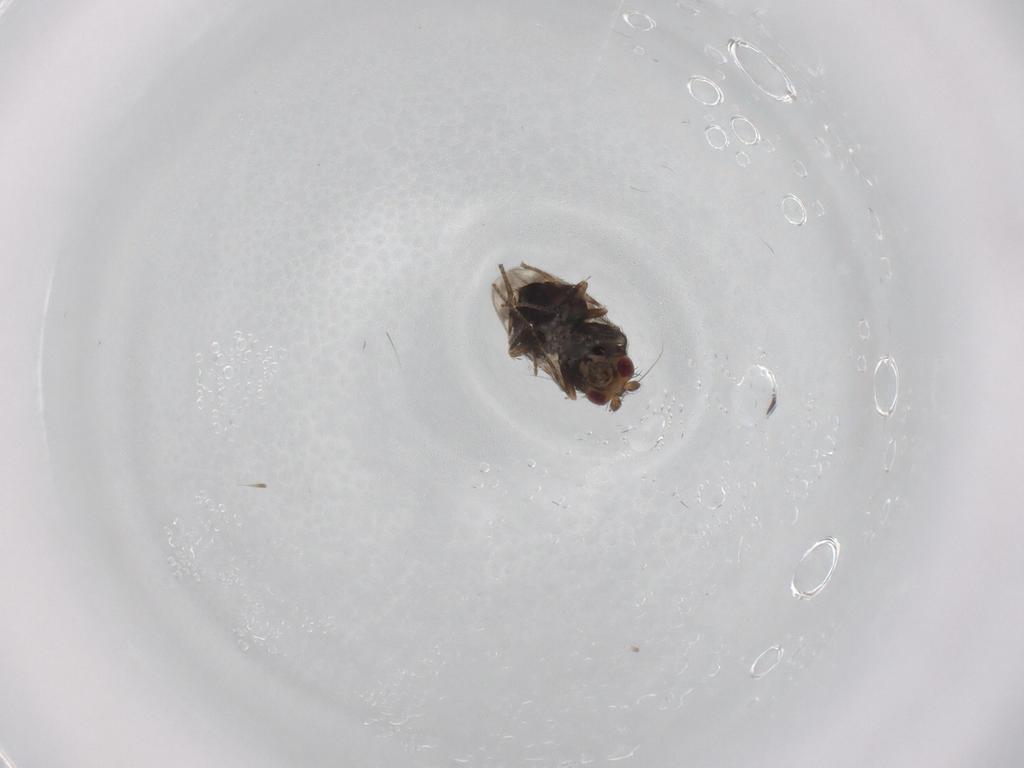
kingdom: Animalia
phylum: Arthropoda
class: Insecta
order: Diptera
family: Sphaeroceridae
